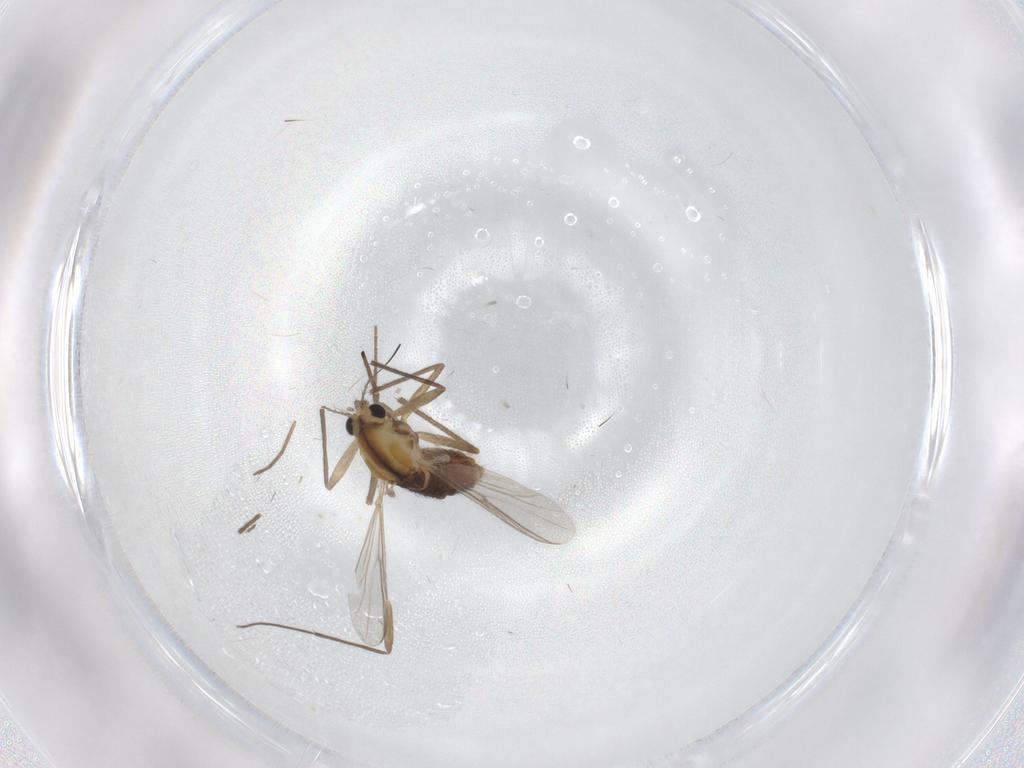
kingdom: Animalia
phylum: Arthropoda
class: Insecta
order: Diptera
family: Chironomidae
